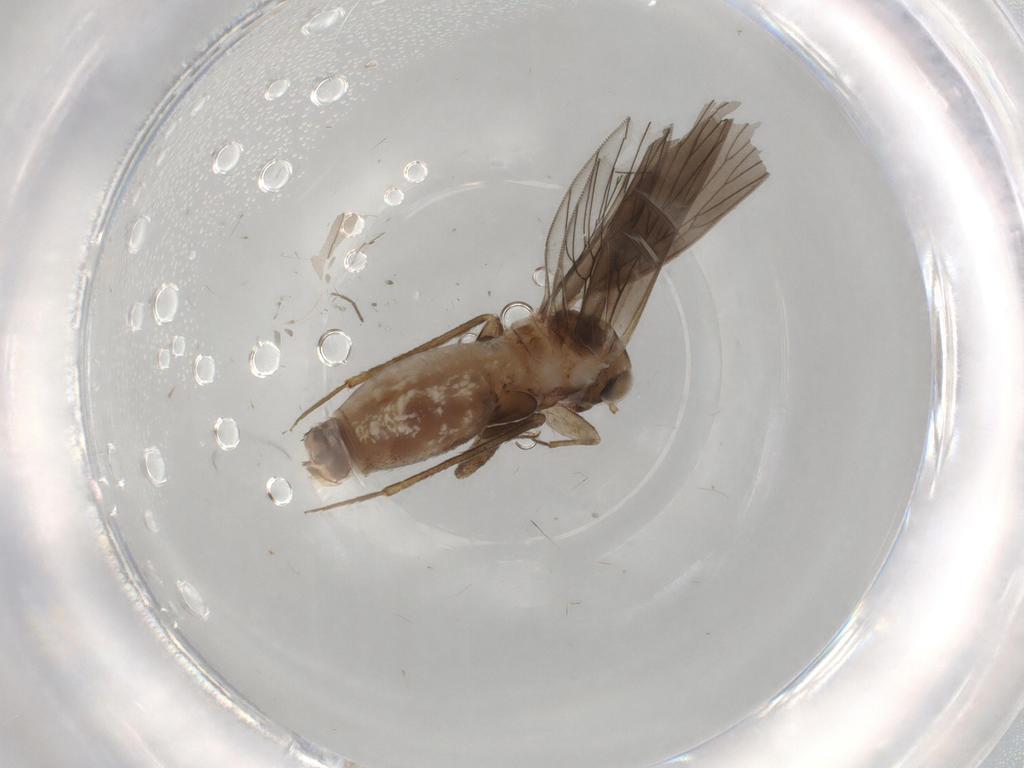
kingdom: Animalia
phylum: Arthropoda
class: Insecta
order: Psocodea
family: Lepidopsocidae
